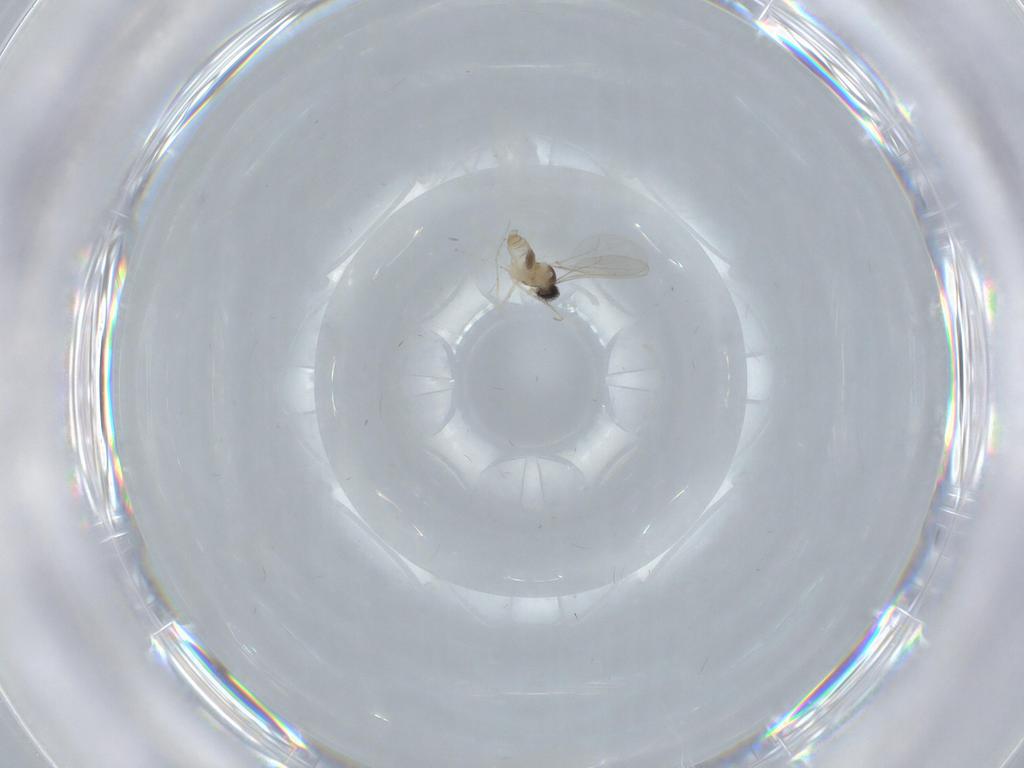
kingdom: Animalia
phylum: Arthropoda
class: Insecta
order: Diptera
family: Cecidomyiidae
